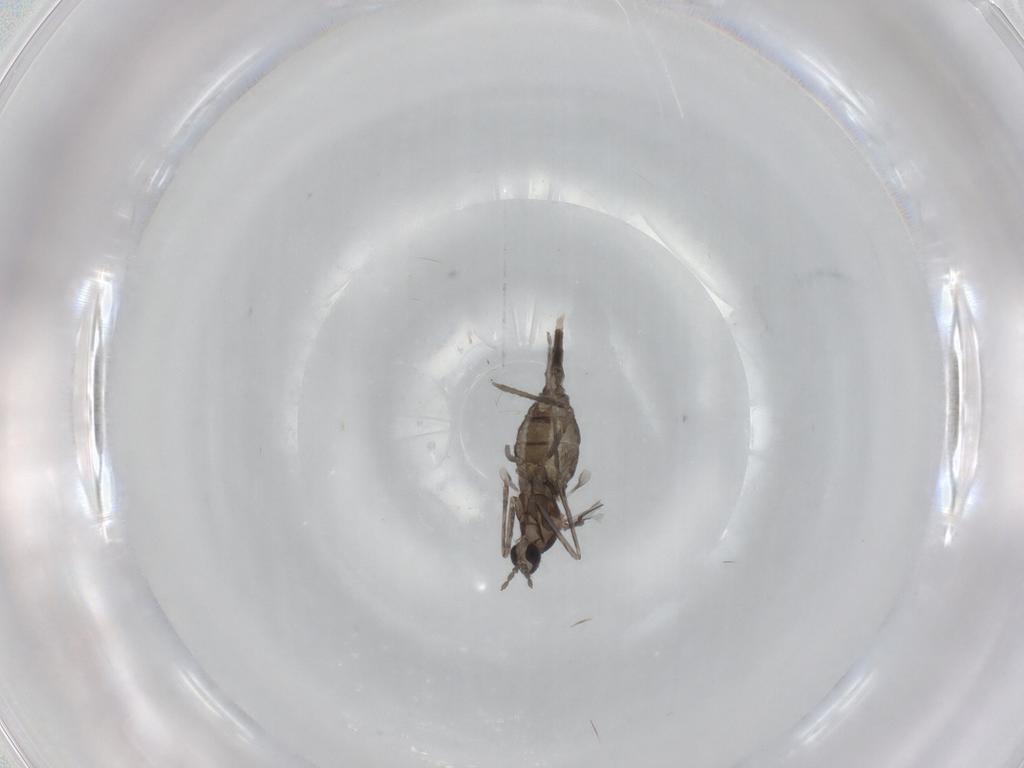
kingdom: Animalia
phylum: Arthropoda
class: Insecta
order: Diptera
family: Cecidomyiidae
